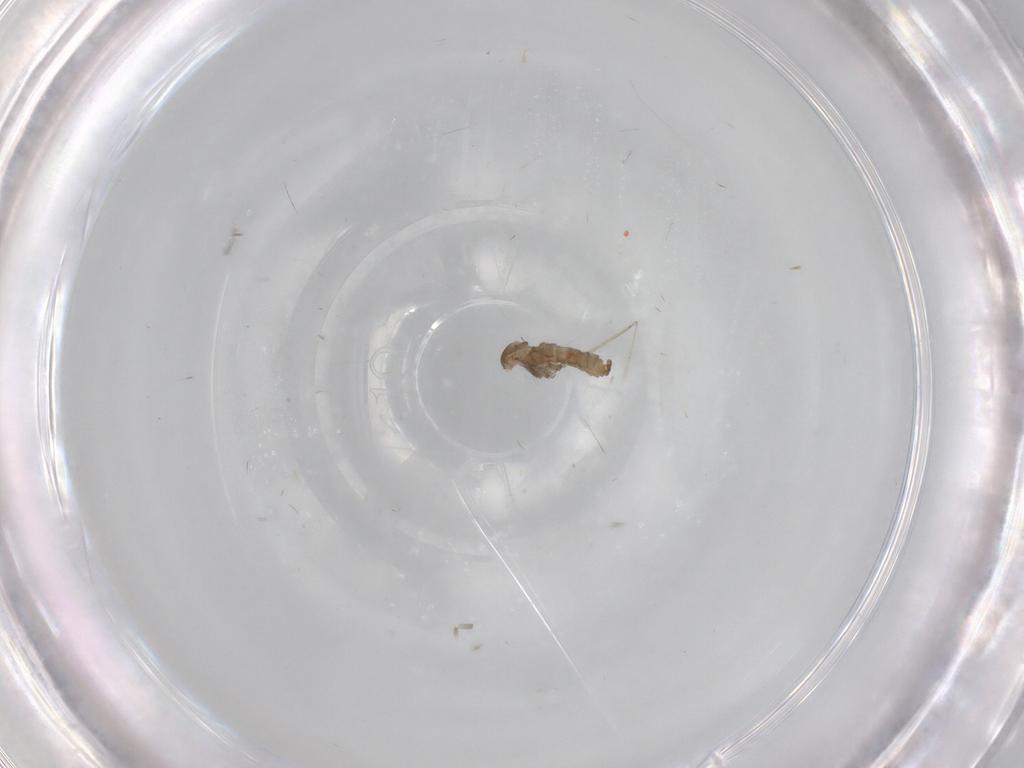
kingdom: Animalia
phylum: Arthropoda
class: Insecta
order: Diptera
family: Cecidomyiidae
